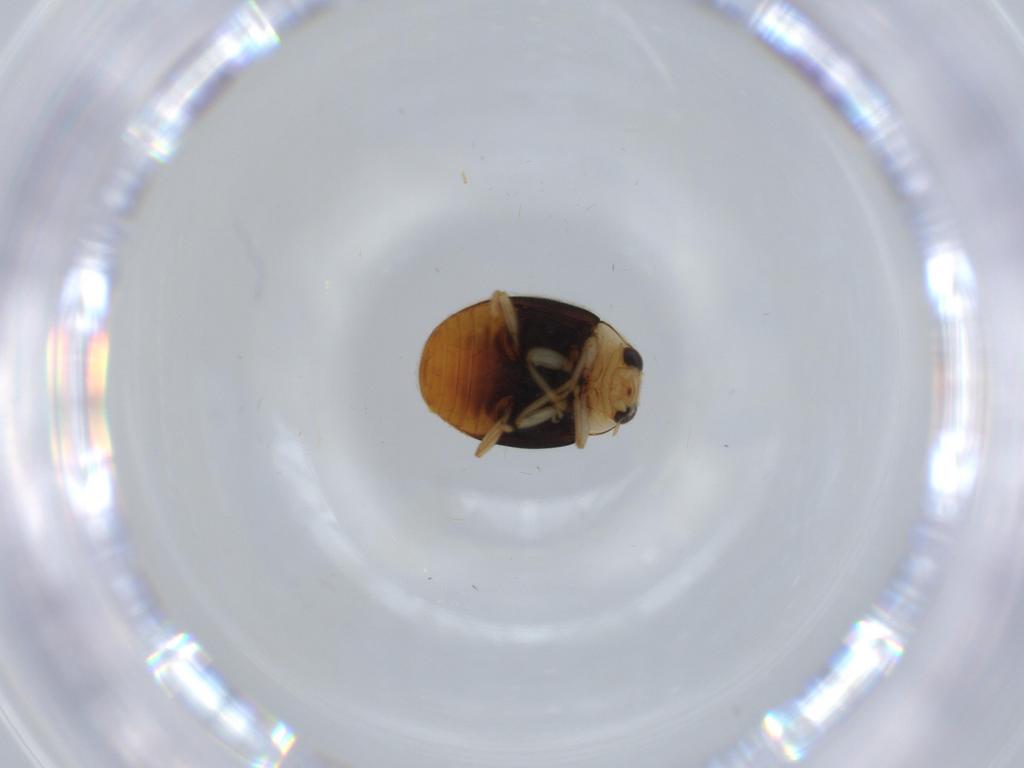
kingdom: Animalia
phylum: Arthropoda
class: Insecta
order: Coleoptera
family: Coccinellidae
